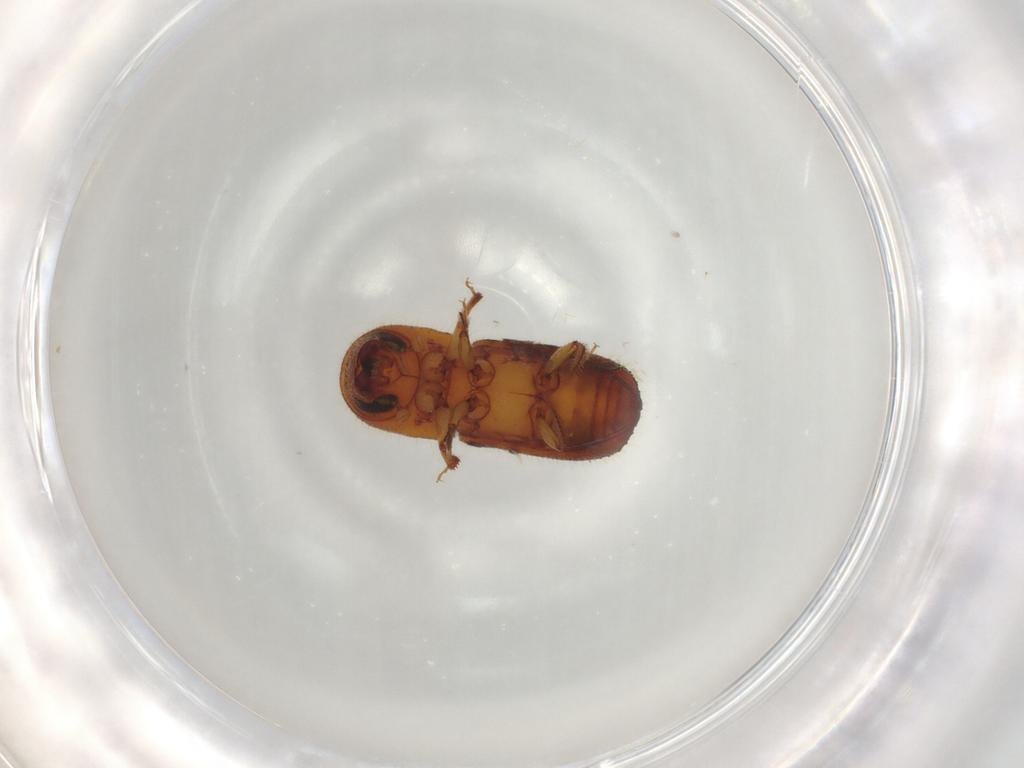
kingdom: Animalia
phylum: Arthropoda
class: Insecta
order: Coleoptera
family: Curculionidae
